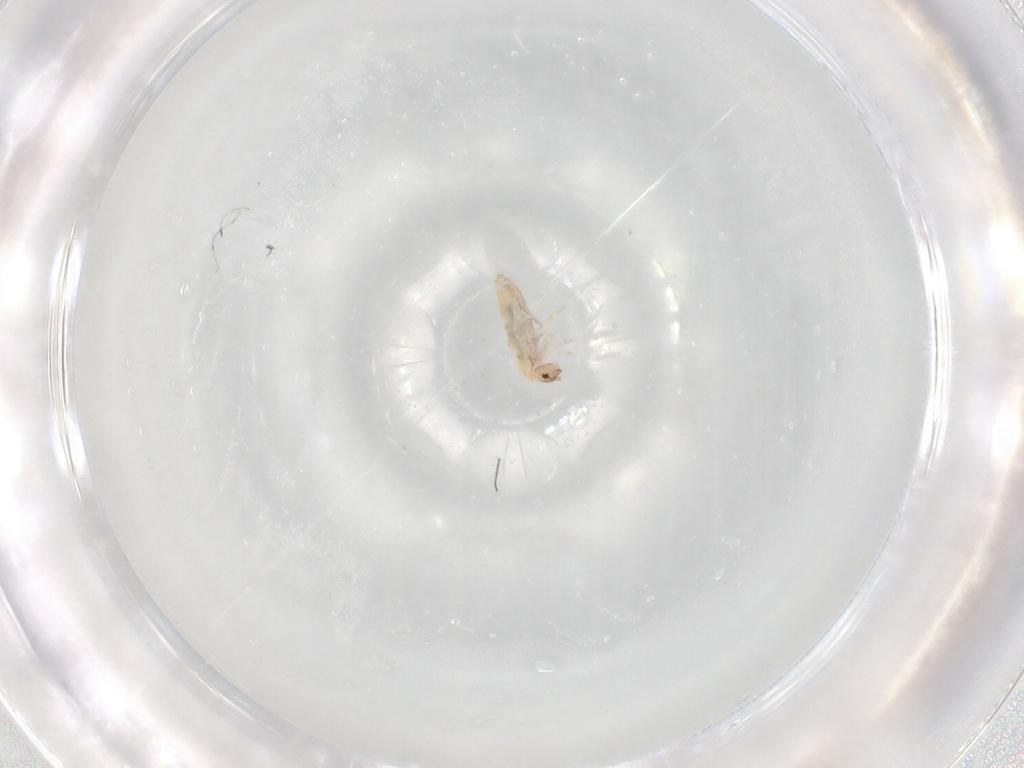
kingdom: Animalia
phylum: Arthropoda
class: Collembola
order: Entomobryomorpha
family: Entomobryidae
